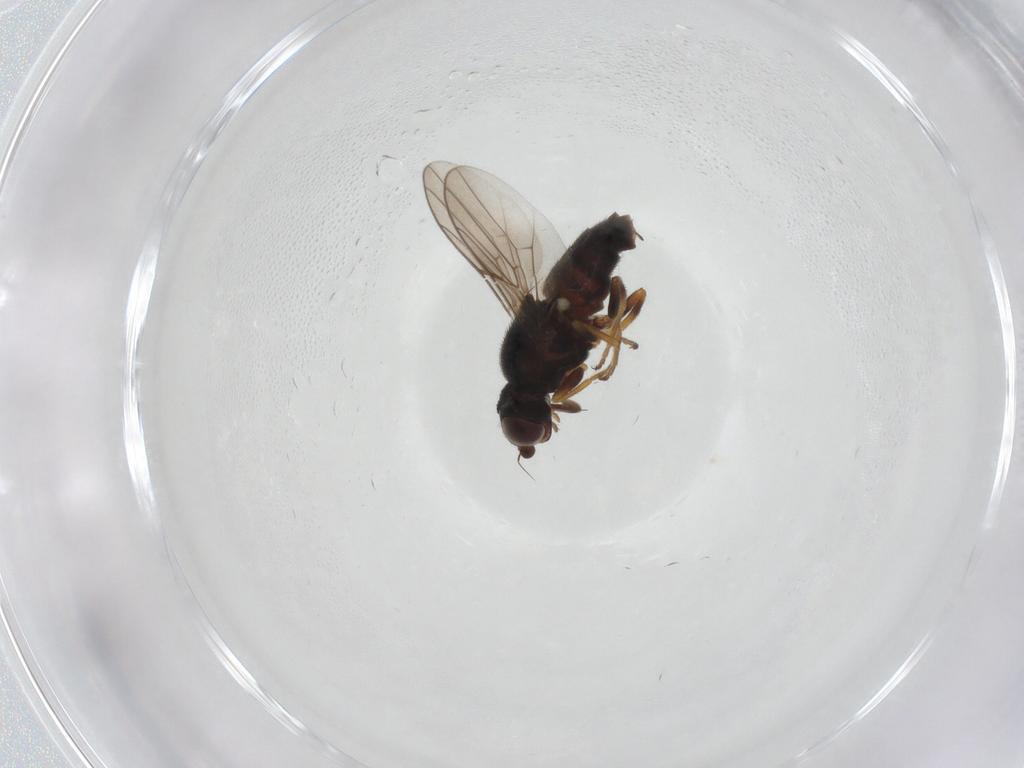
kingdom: Animalia
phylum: Arthropoda
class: Insecta
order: Diptera
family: Chloropidae
